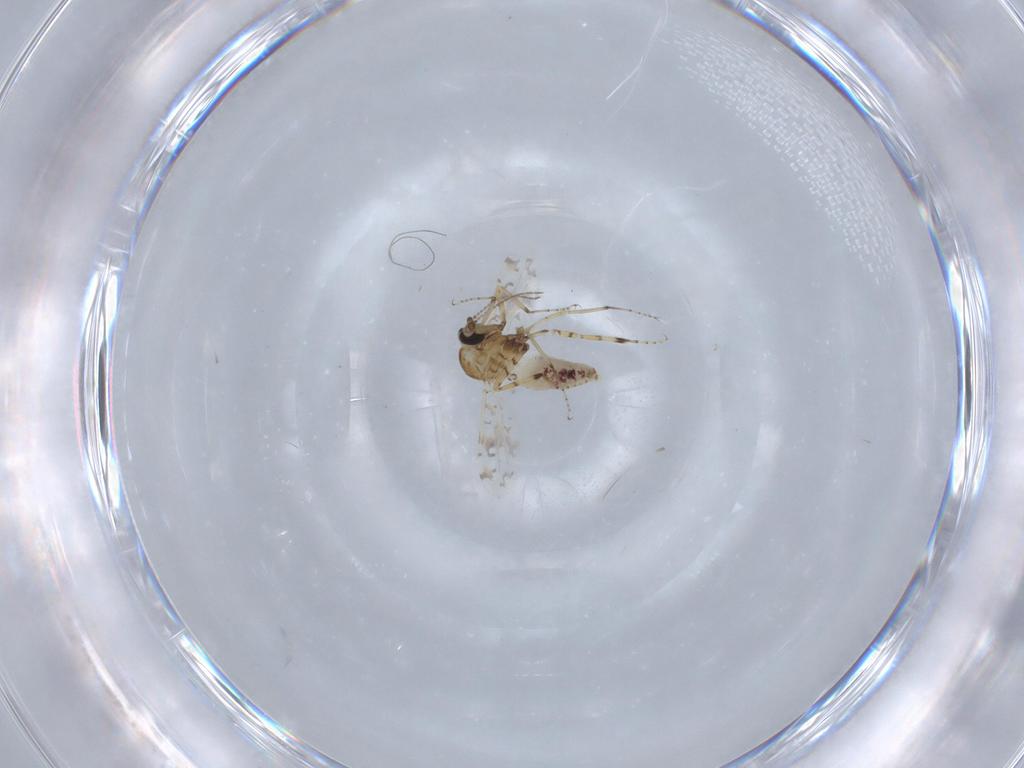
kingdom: Animalia
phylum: Arthropoda
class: Insecta
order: Diptera
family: Ceratopogonidae
